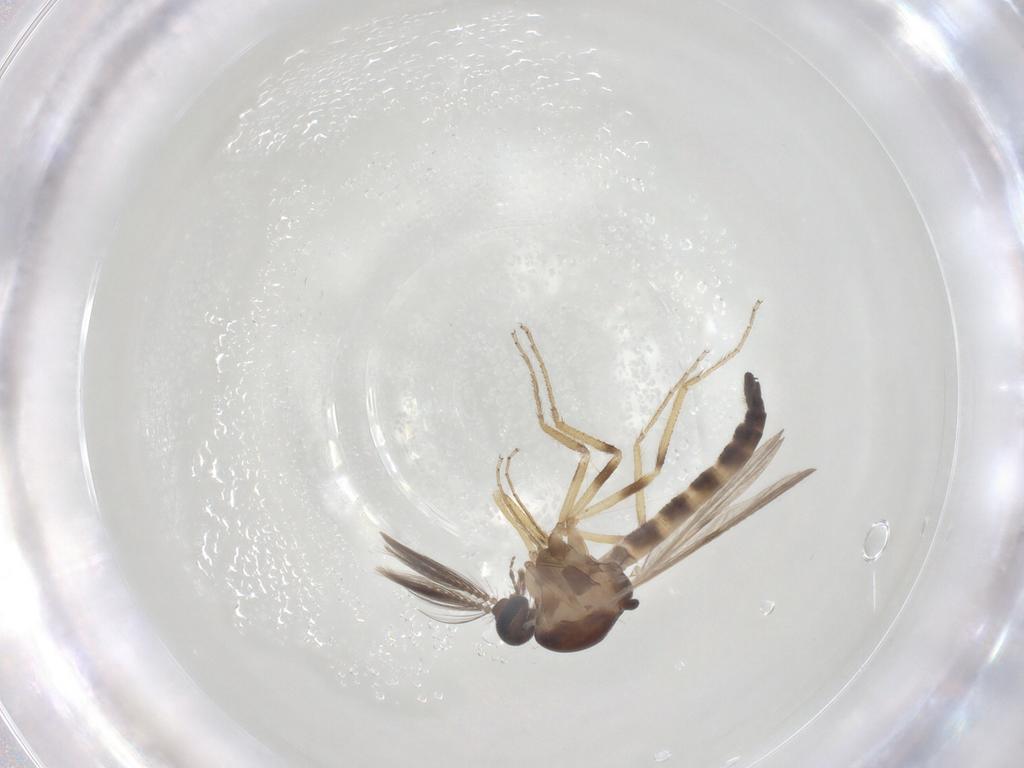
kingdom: Animalia
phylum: Arthropoda
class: Insecta
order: Diptera
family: Ceratopogonidae
